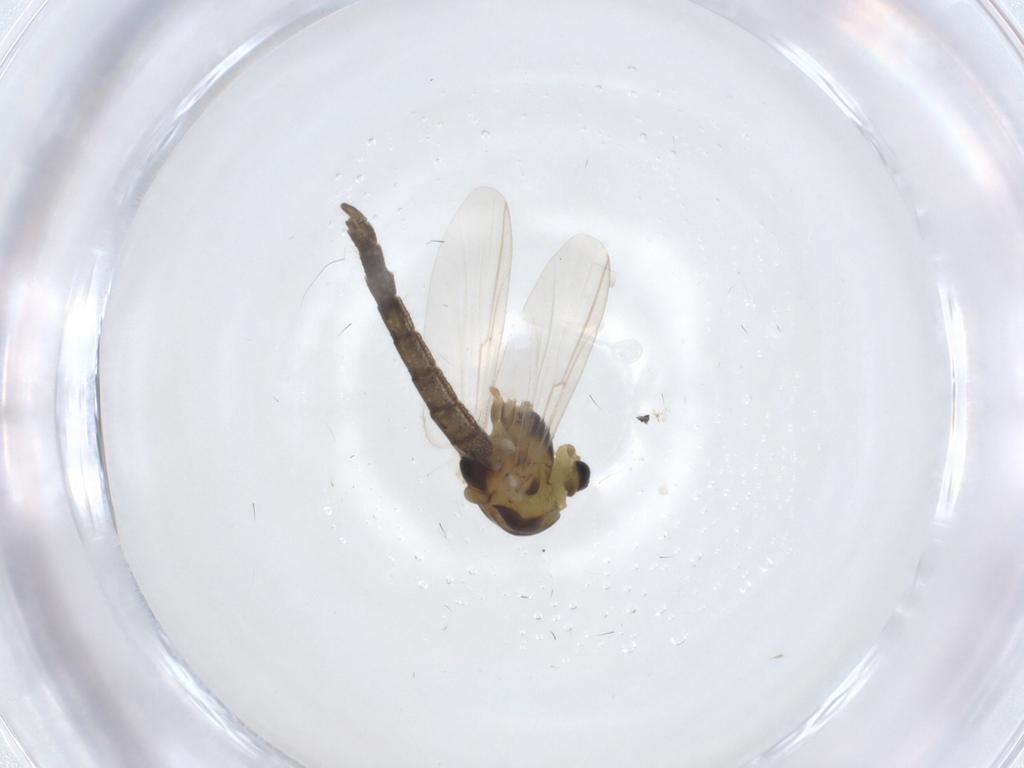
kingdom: Animalia
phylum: Arthropoda
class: Insecta
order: Diptera
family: Chironomidae
